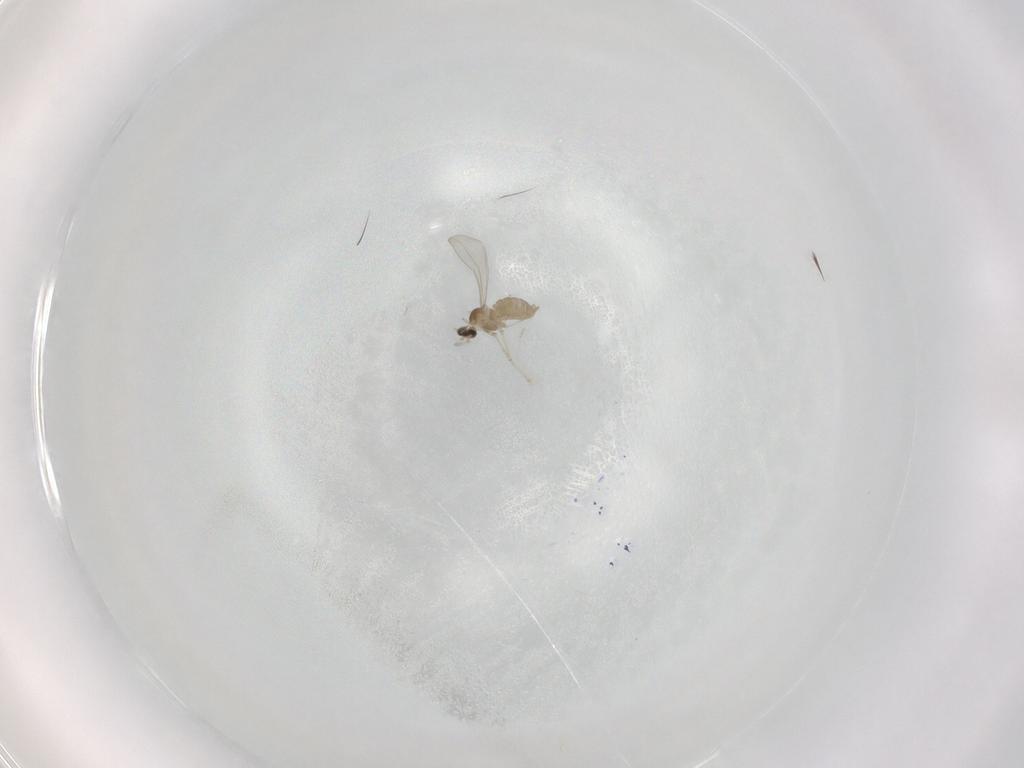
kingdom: Animalia
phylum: Arthropoda
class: Insecta
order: Diptera
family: Cecidomyiidae
